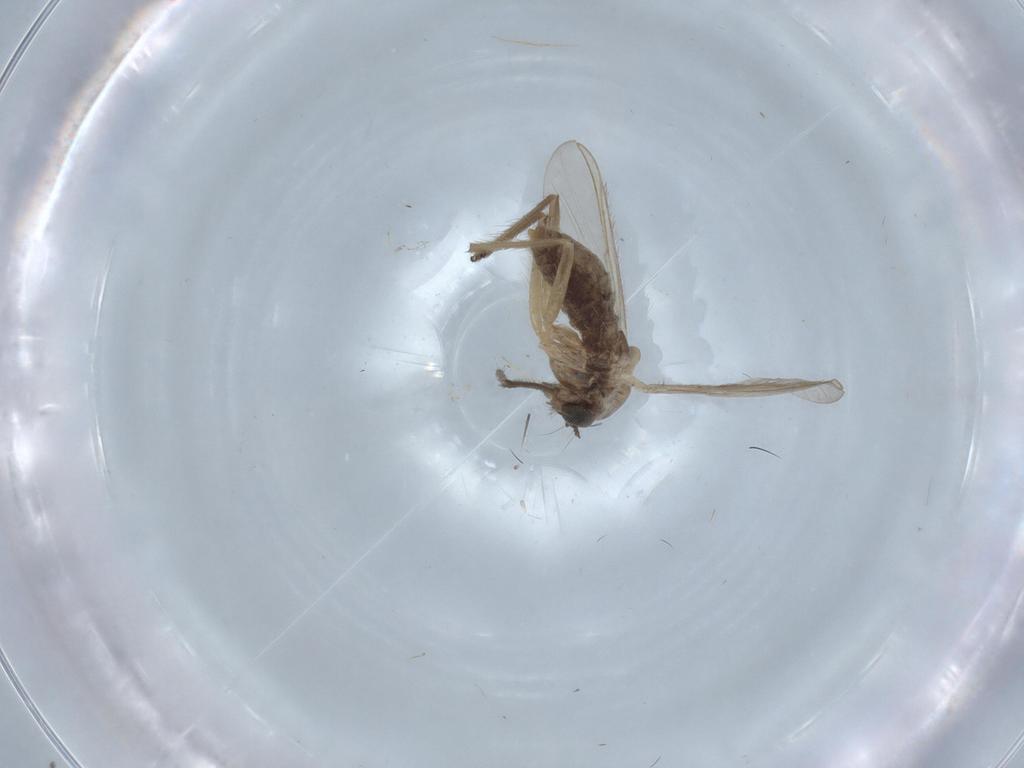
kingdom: Animalia
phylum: Arthropoda
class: Insecta
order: Diptera
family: Chironomidae
